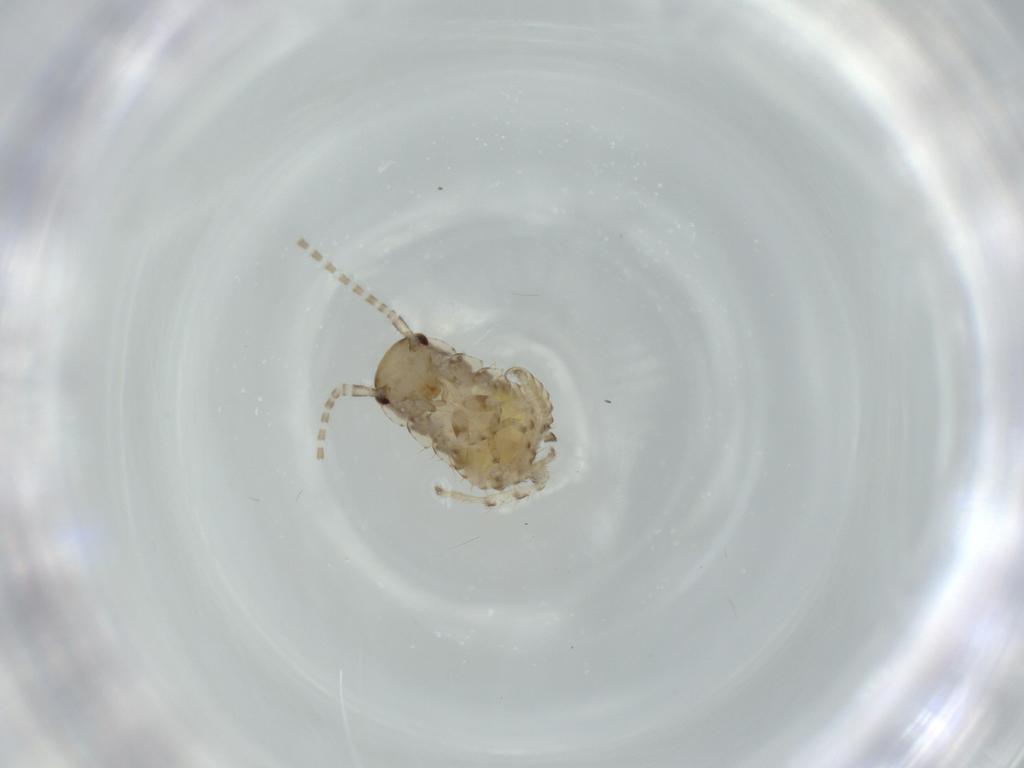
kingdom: Animalia
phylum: Arthropoda
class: Insecta
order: Blattodea
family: Ectobiidae
